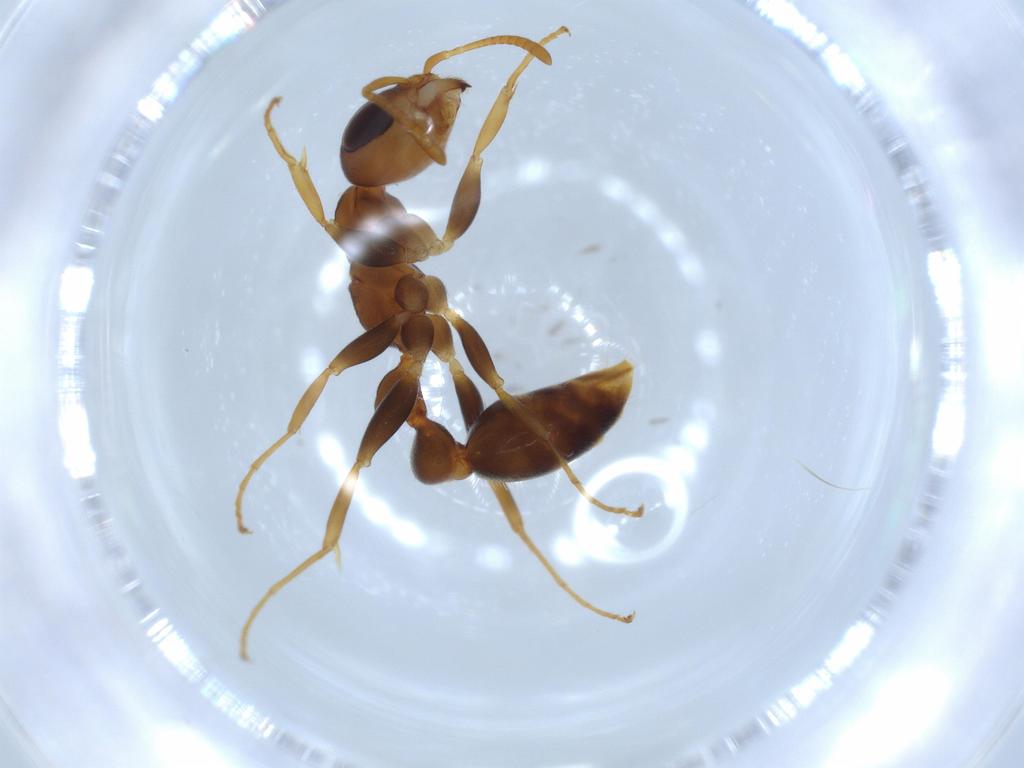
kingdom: Animalia
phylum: Arthropoda
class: Insecta
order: Hymenoptera
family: Formicidae
